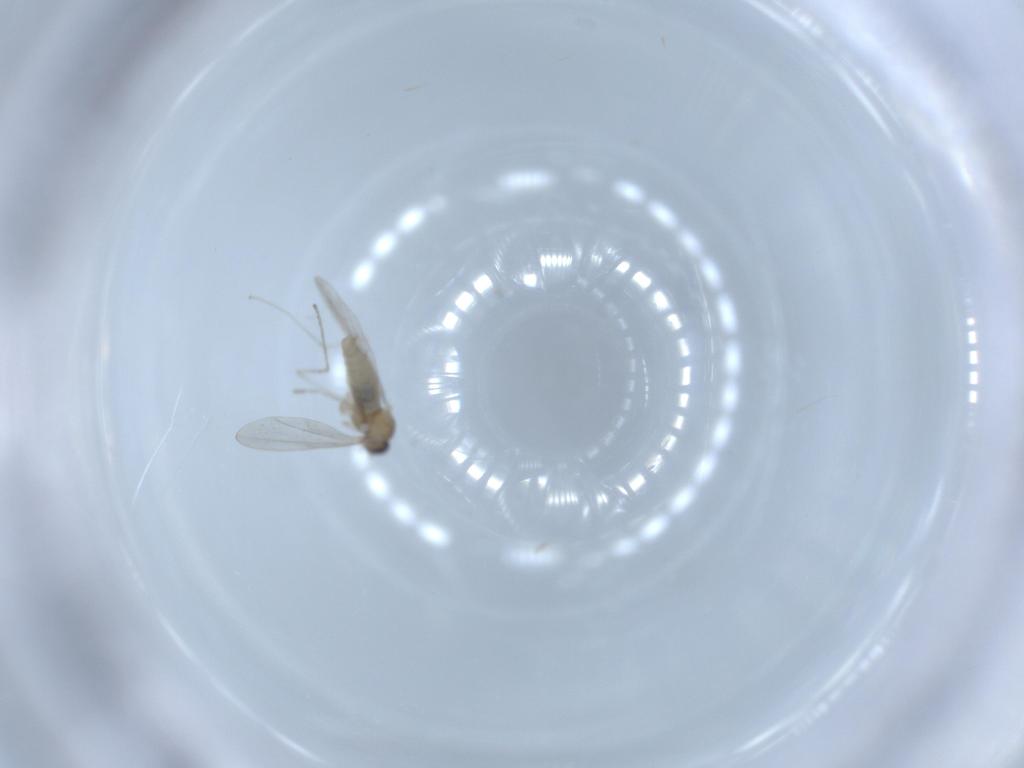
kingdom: Animalia
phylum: Arthropoda
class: Insecta
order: Diptera
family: Cecidomyiidae
